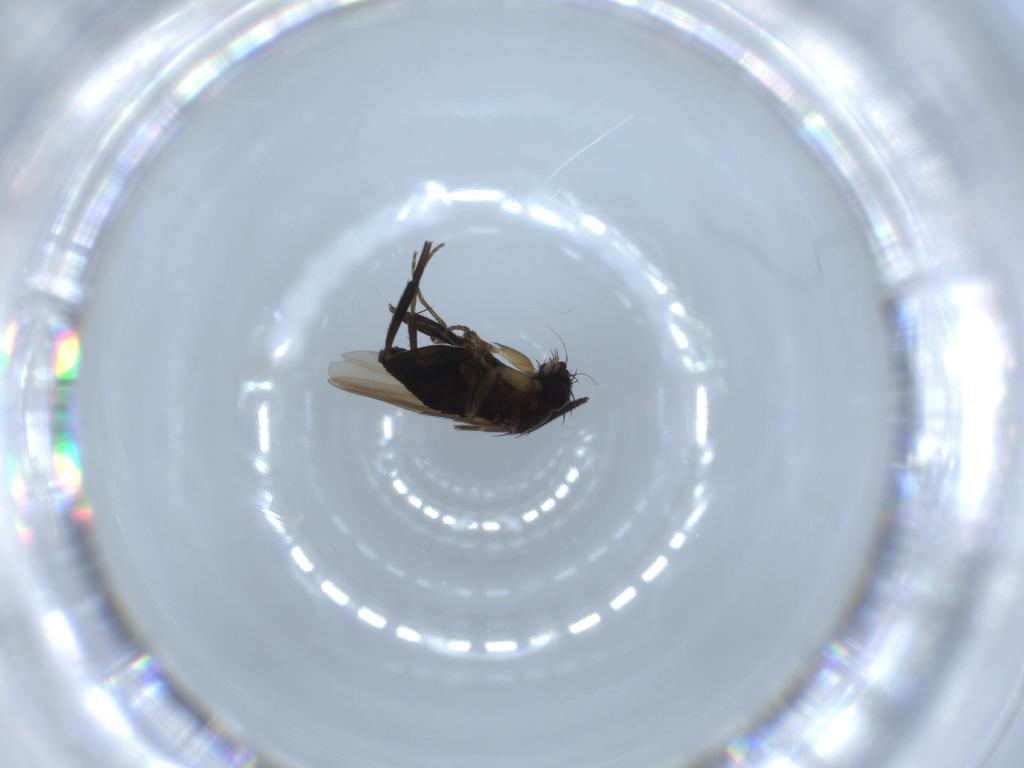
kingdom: Animalia
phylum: Arthropoda
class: Insecta
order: Diptera
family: Phoridae
